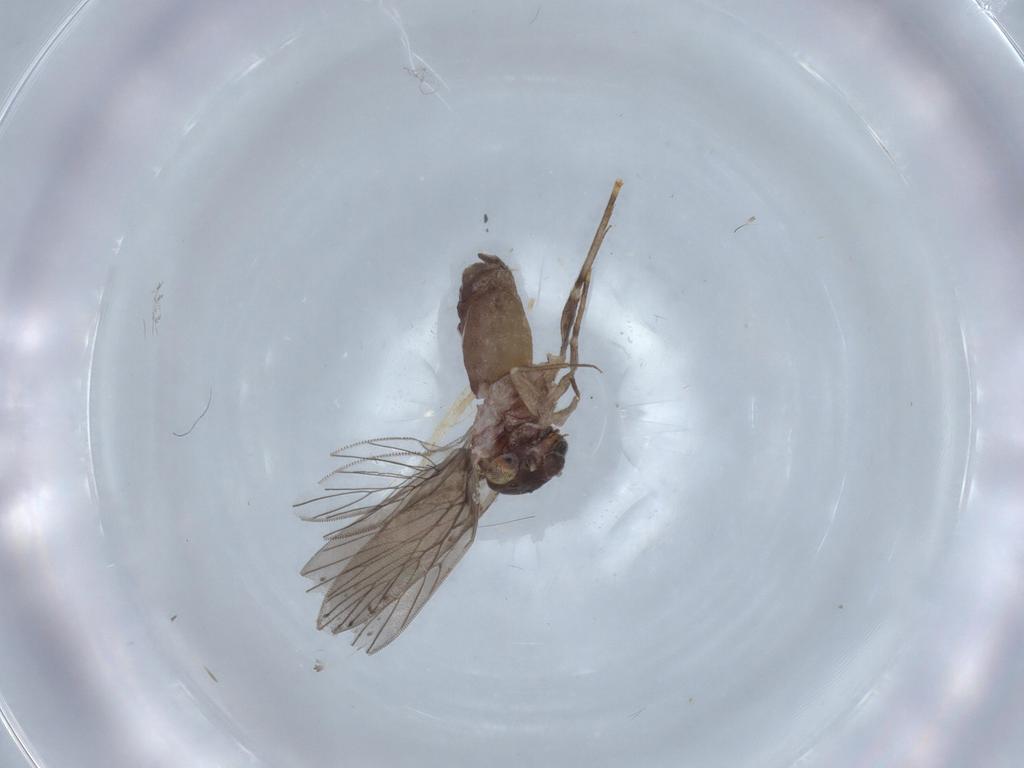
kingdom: Animalia
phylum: Arthropoda
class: Insecta
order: Psocodea
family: Lepidopsocidae
